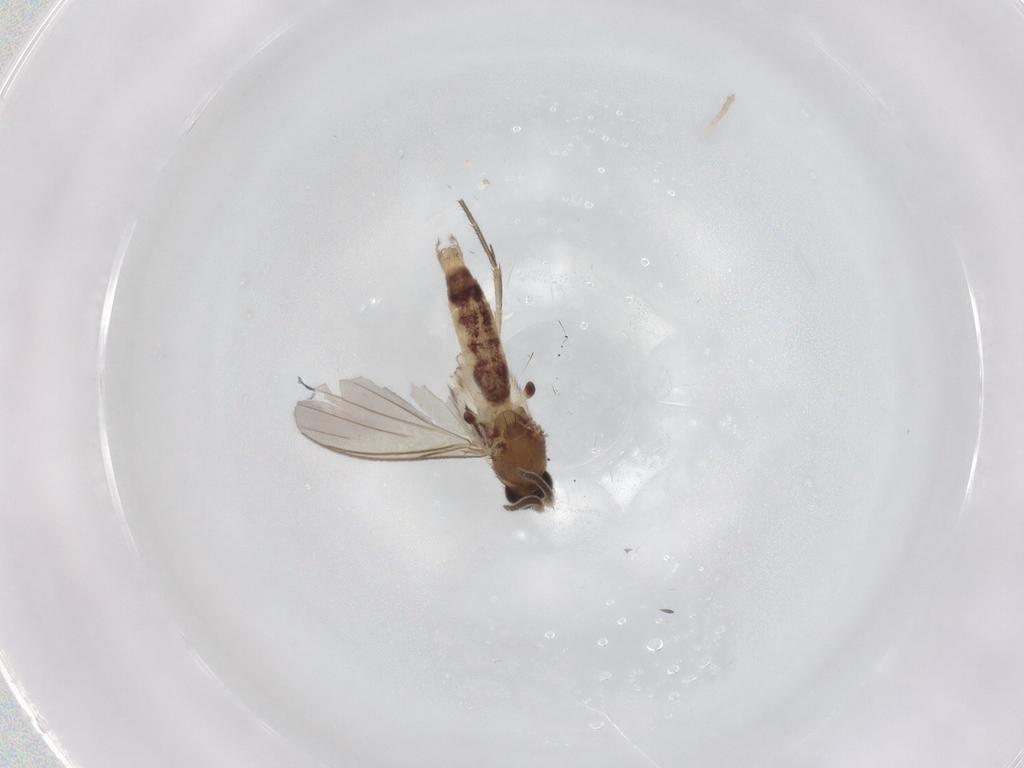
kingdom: Animalia
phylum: Arthropoda
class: Insecta
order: Diptera
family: Mycetophilidae
